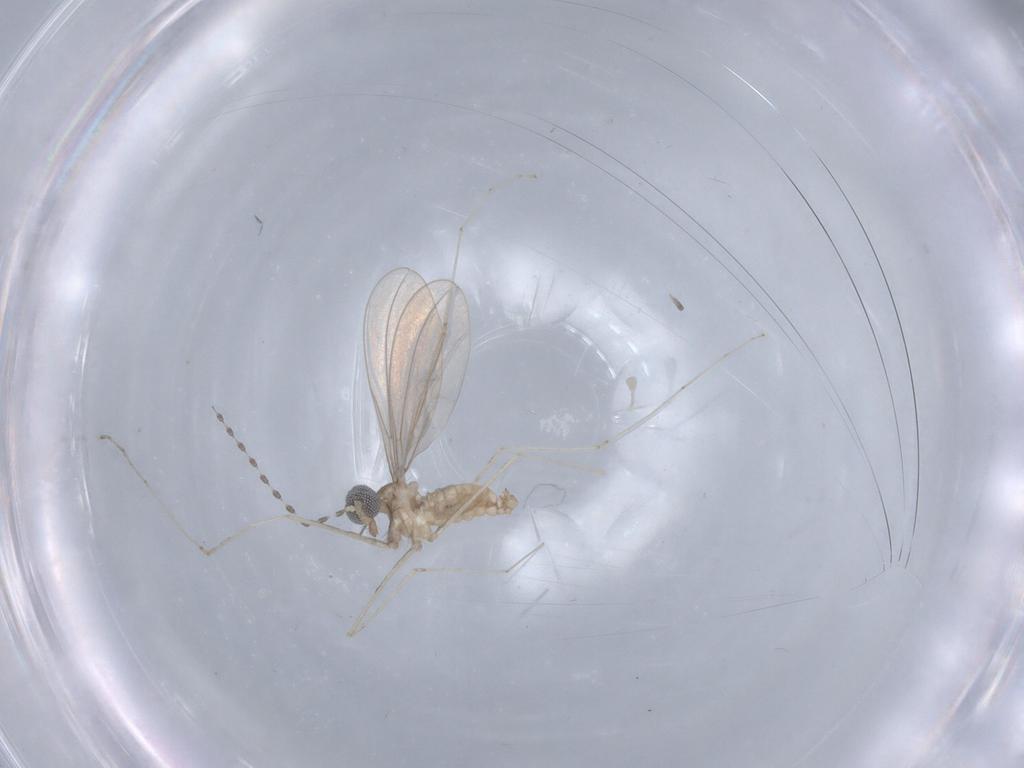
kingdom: Animalia
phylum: Arthropoda
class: Insecta
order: Diptera
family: Cecidomyiidae
